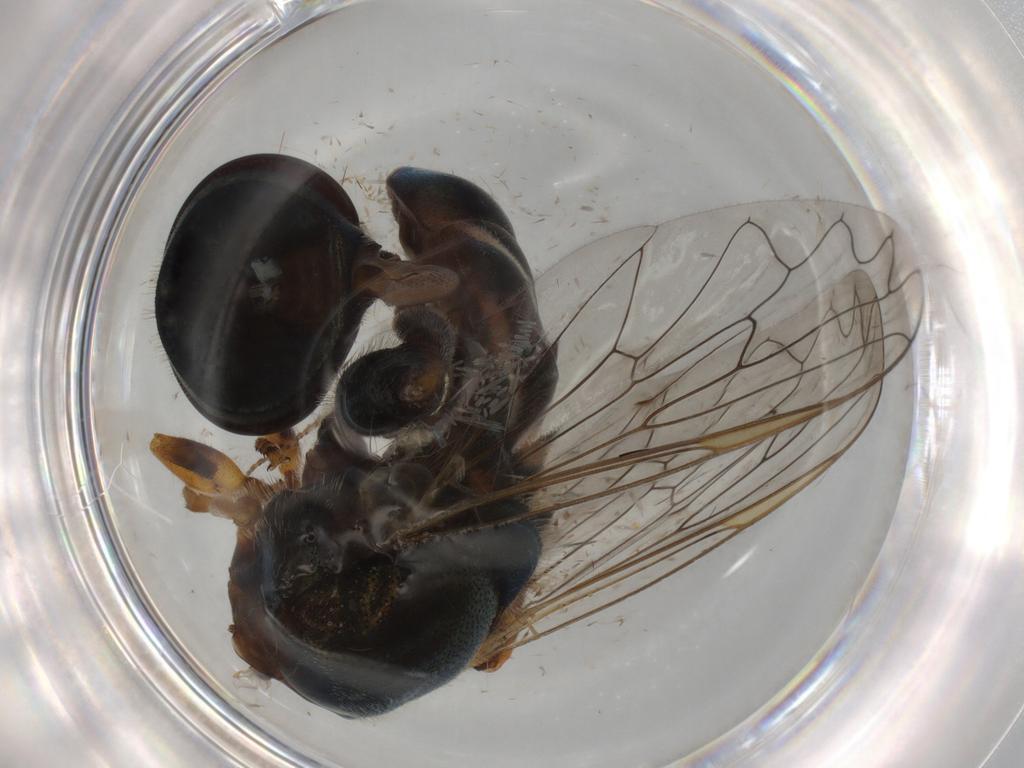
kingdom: Animalia
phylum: Arthropoda
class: Insecta
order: Diptera
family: Syrphidae
